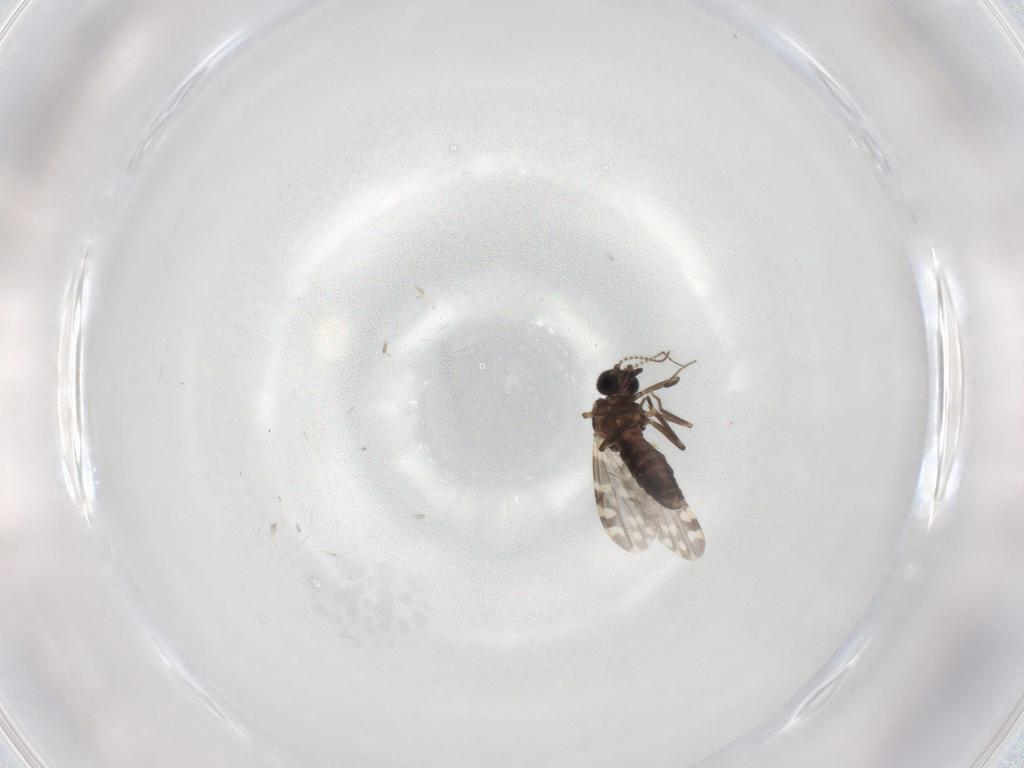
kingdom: Animalia
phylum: Arthropoda
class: Insecta
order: Diptera
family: Ceratopogonidae
